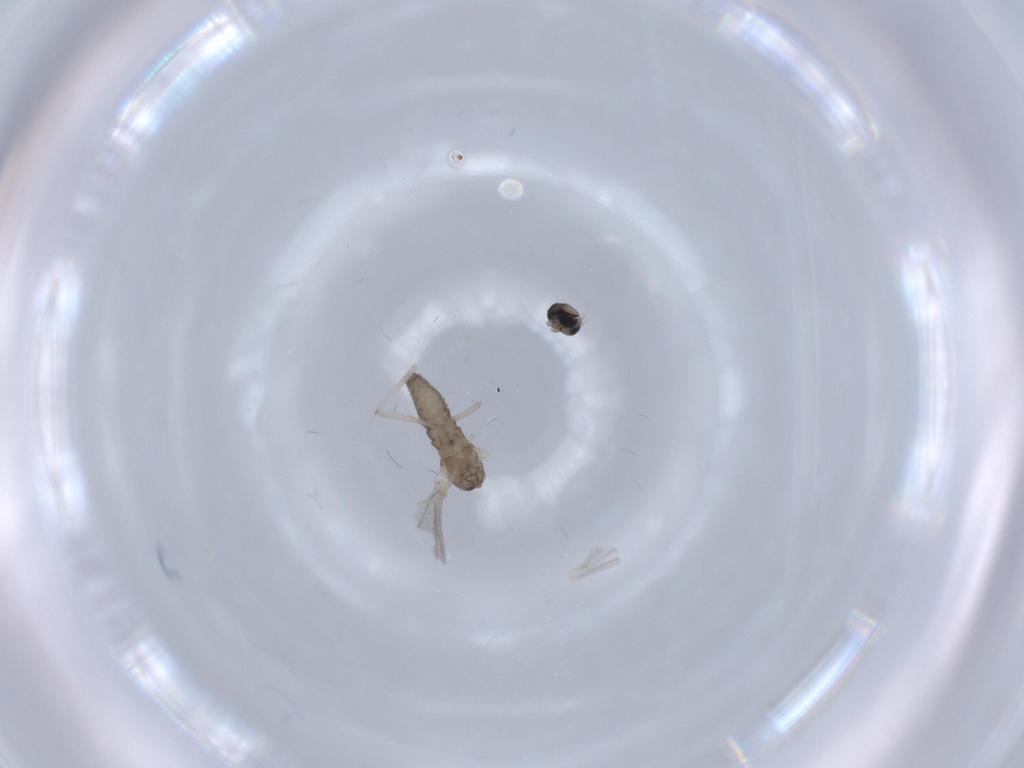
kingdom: Animalia
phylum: Arthropoda
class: Insecta
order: Diptera
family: Cecidomyiidae
